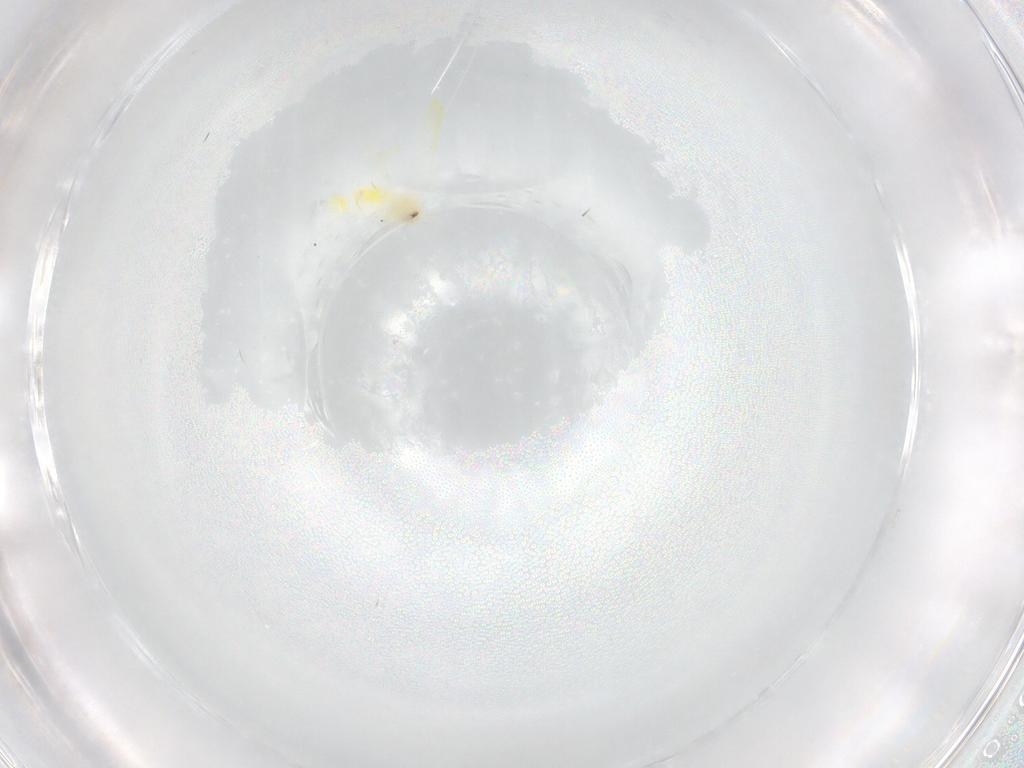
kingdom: Animalia
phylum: Arthropoda
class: Insecta
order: Hemiptera
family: Aleyrodidae
